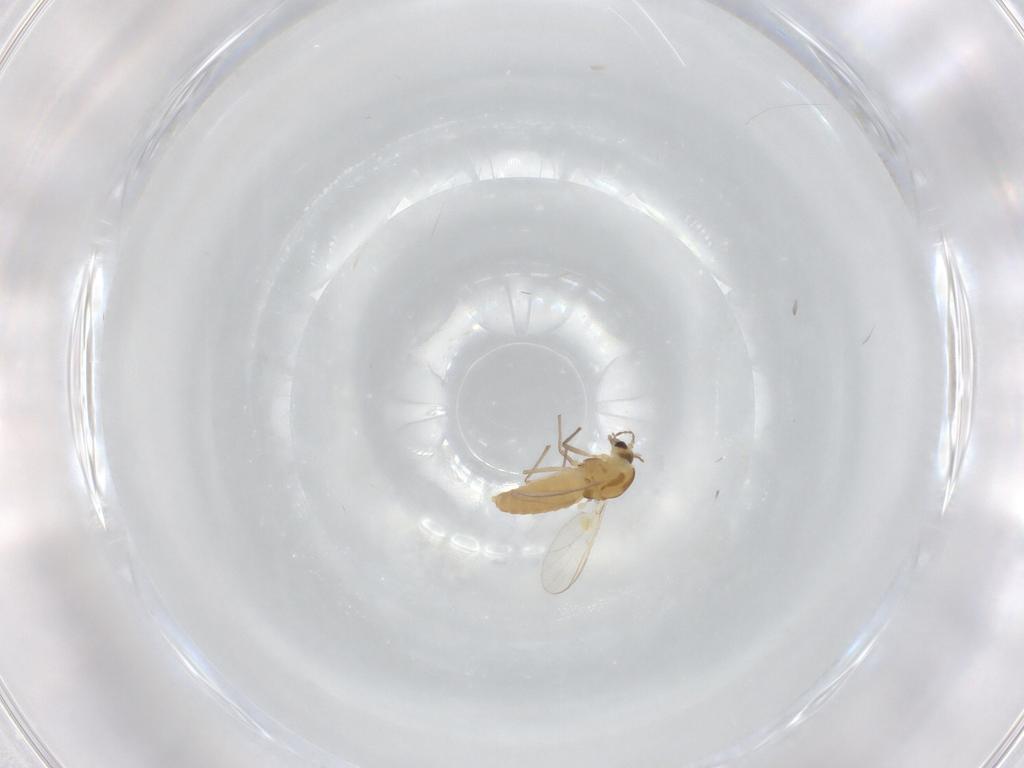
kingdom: Animalia
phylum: Arthropoda
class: Insecta
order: Diptera
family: Chironomidae
